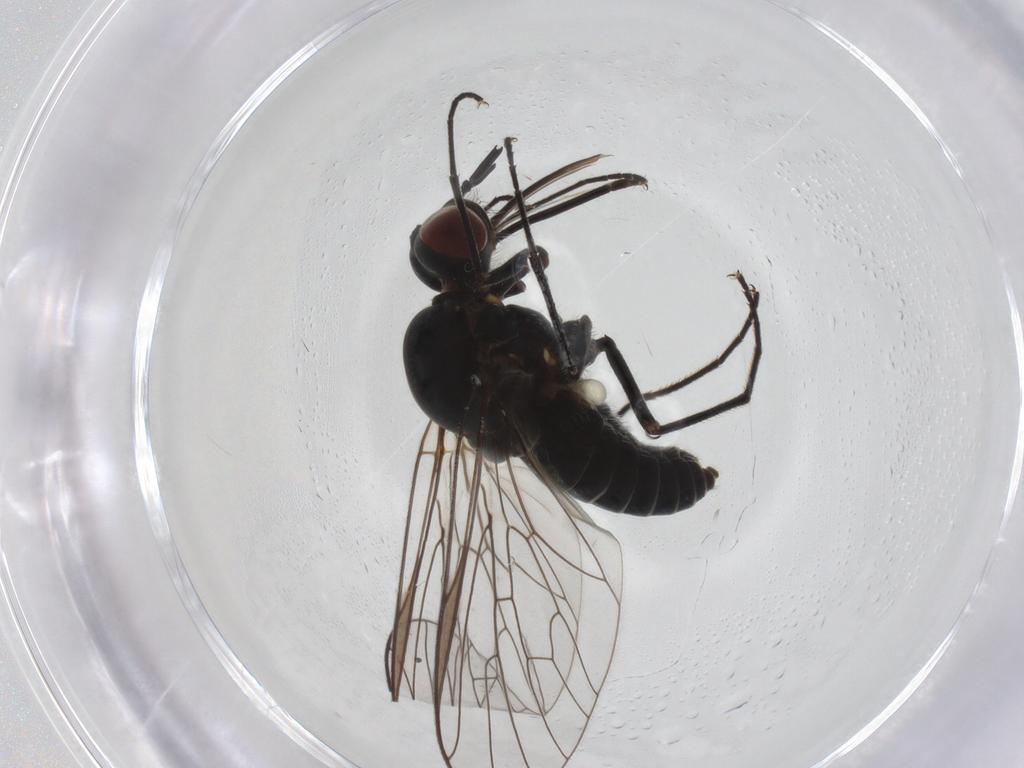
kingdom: Animalia
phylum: Arthropoda
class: Insecta
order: Diptera
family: Bombyliidae
